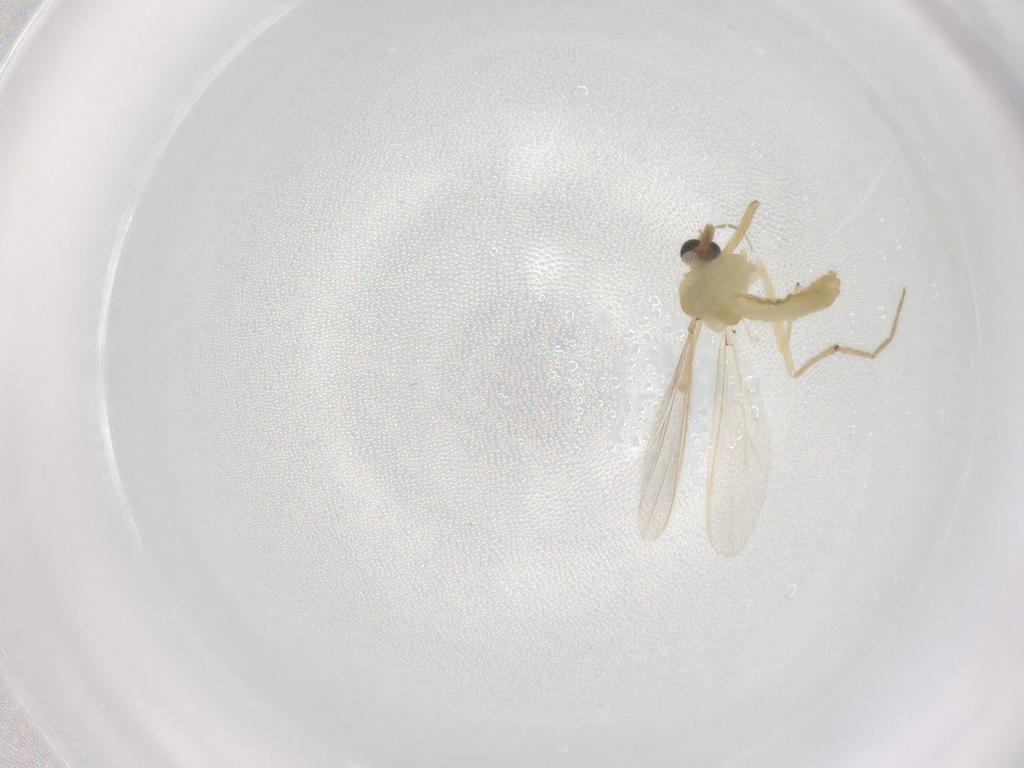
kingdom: Animalia
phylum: Arthropoda
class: Insecta
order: Diptera
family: Chironomidae
